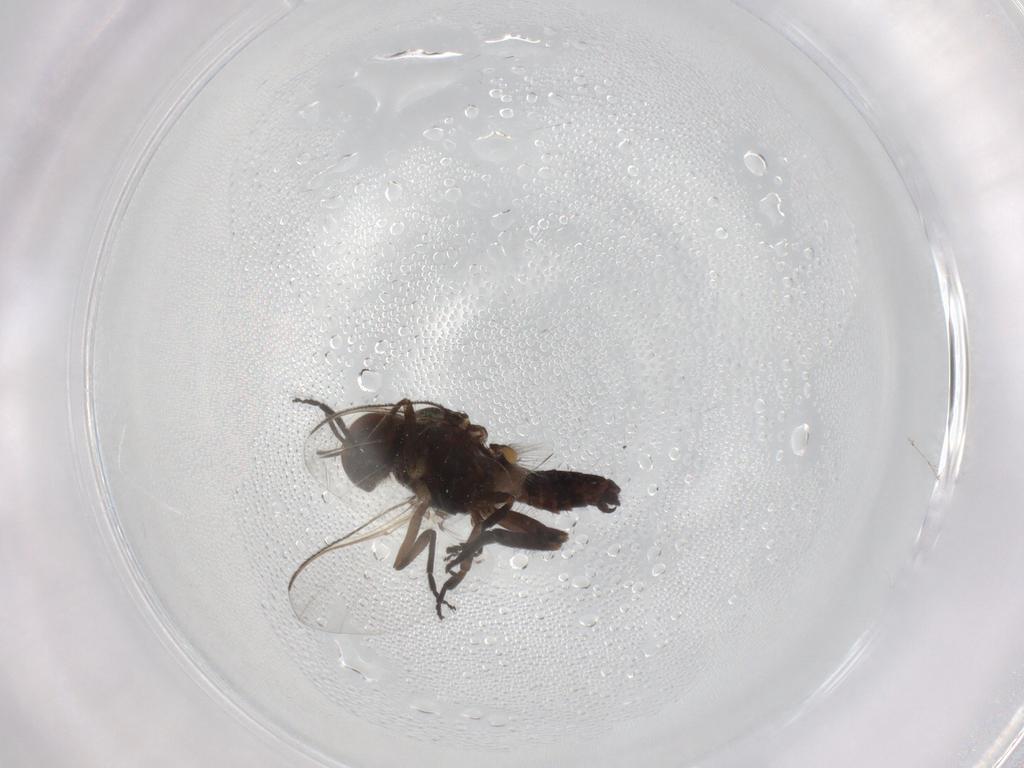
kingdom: Animalia
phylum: Arthropoda
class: Insecta
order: Diptera
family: Simuliidae
